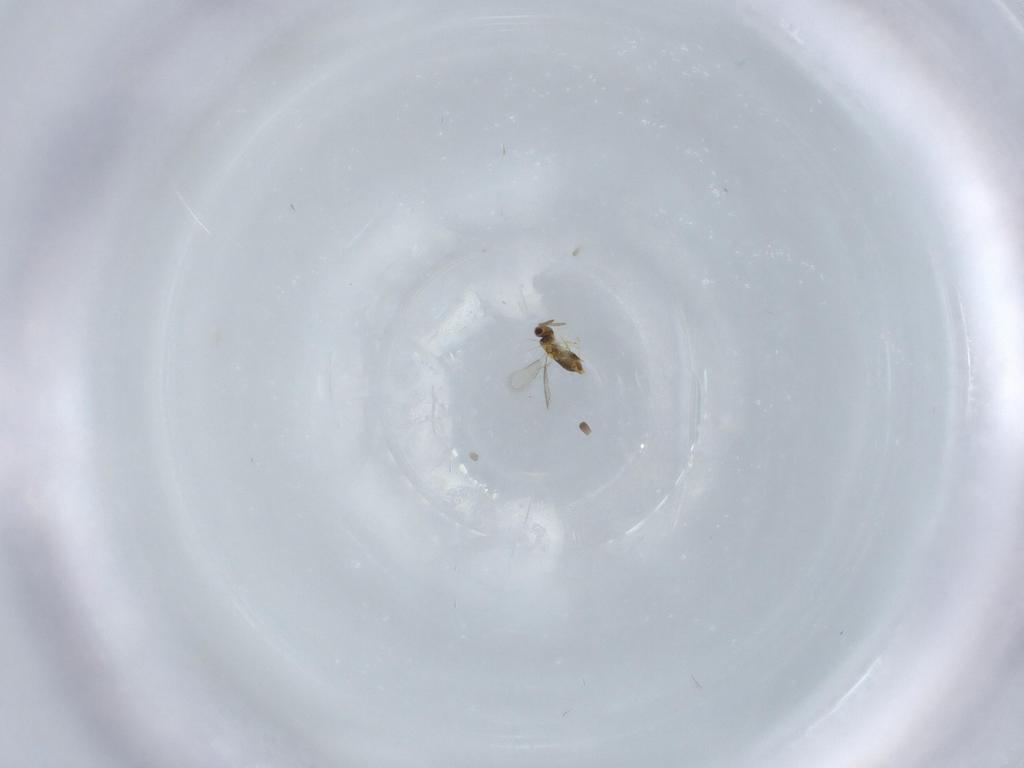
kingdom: Animalia
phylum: Arthropoda
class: Insecta
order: Hymenoptera
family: Aphelinidae
